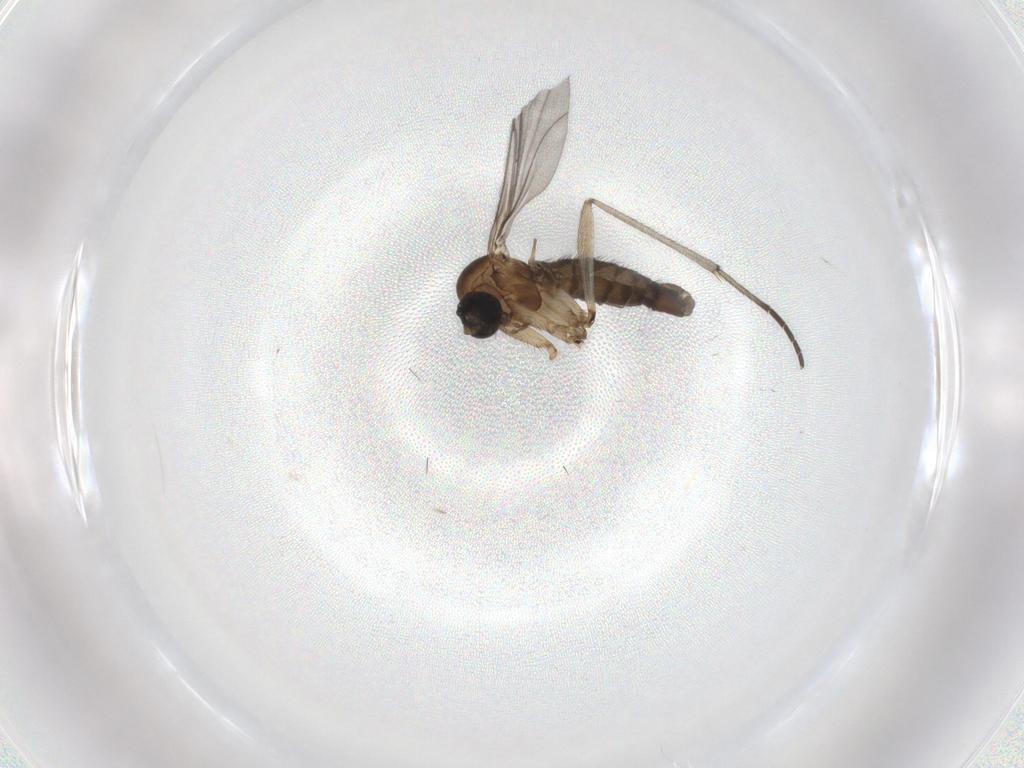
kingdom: Animalia
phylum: Arthropoda
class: Insecta
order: Diptera
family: Sciaridae
